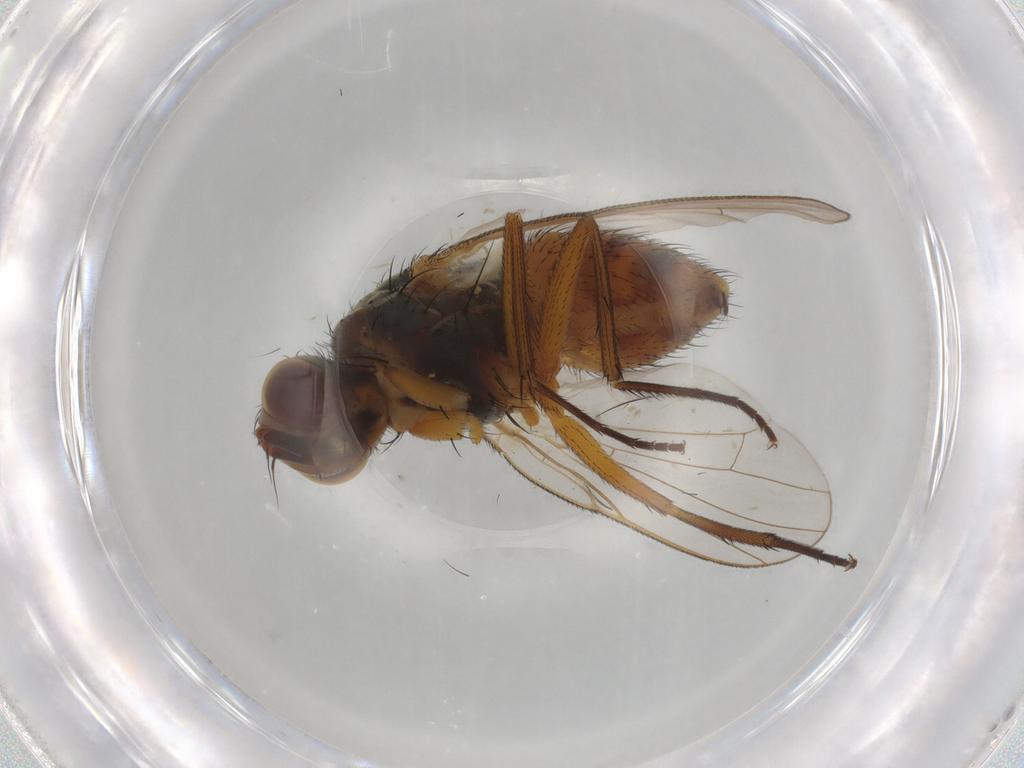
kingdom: Animalia
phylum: Arthropoda
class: Insecta
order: Diptera
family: Muscidae
